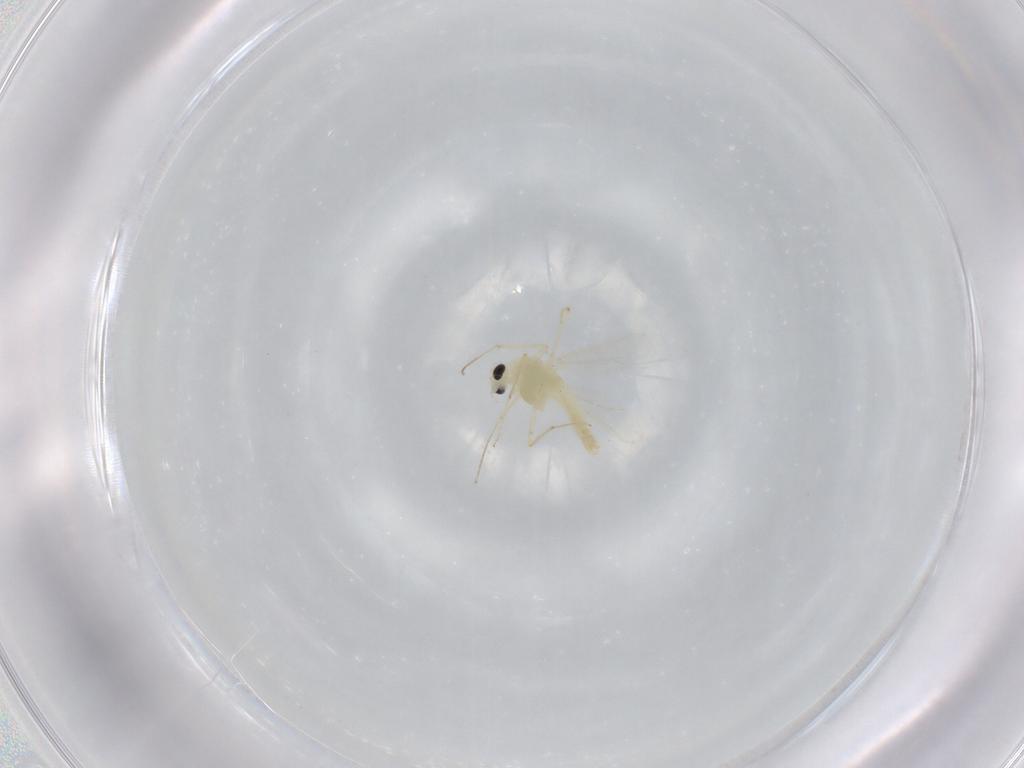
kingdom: Animalia
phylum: Arthropoda
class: Insecta
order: Diptera
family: Chironomidae
